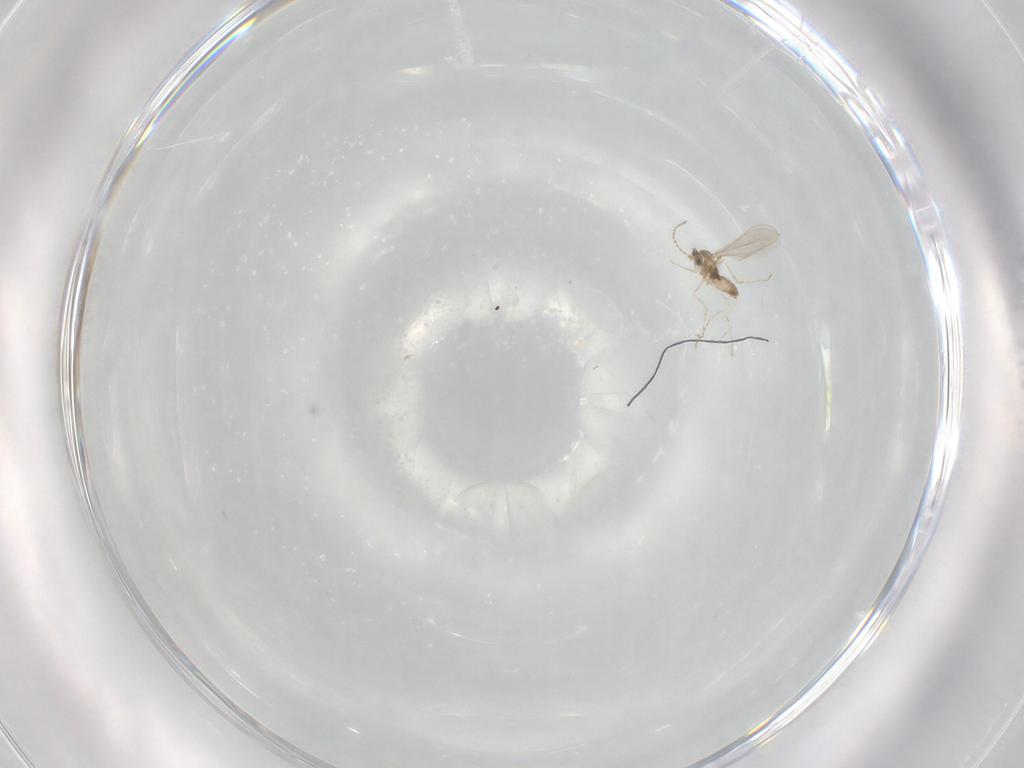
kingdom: Animalia
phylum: Arthropoda
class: Insecta
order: Diptera
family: Cecidomyiidae
